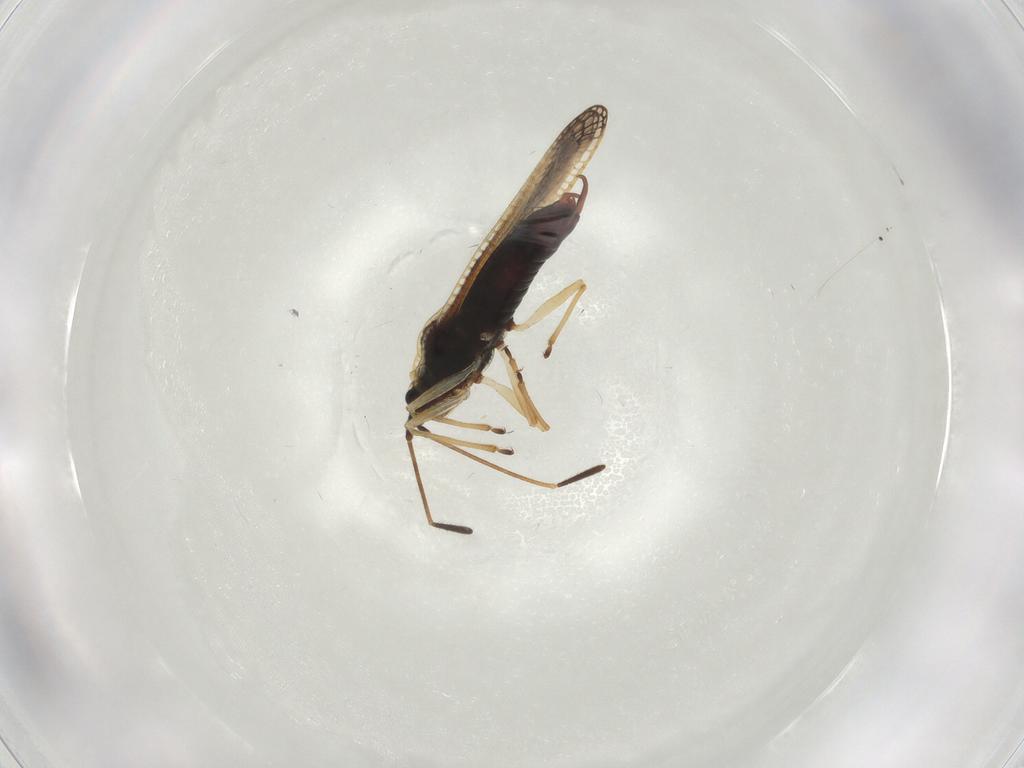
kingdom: Animalia
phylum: Arthropoda
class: Insecta
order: Hemiptera
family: Tingidae
